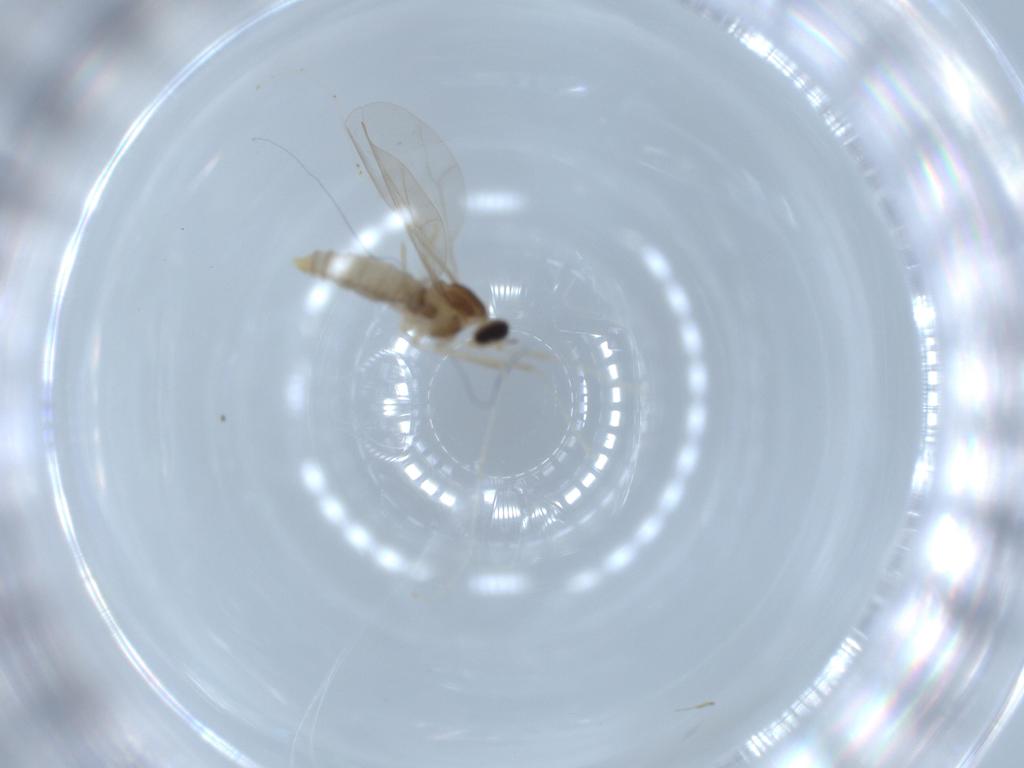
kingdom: Animalia
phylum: Arthropoda
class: Insecta
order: Diptera
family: Cecidomyiidae
